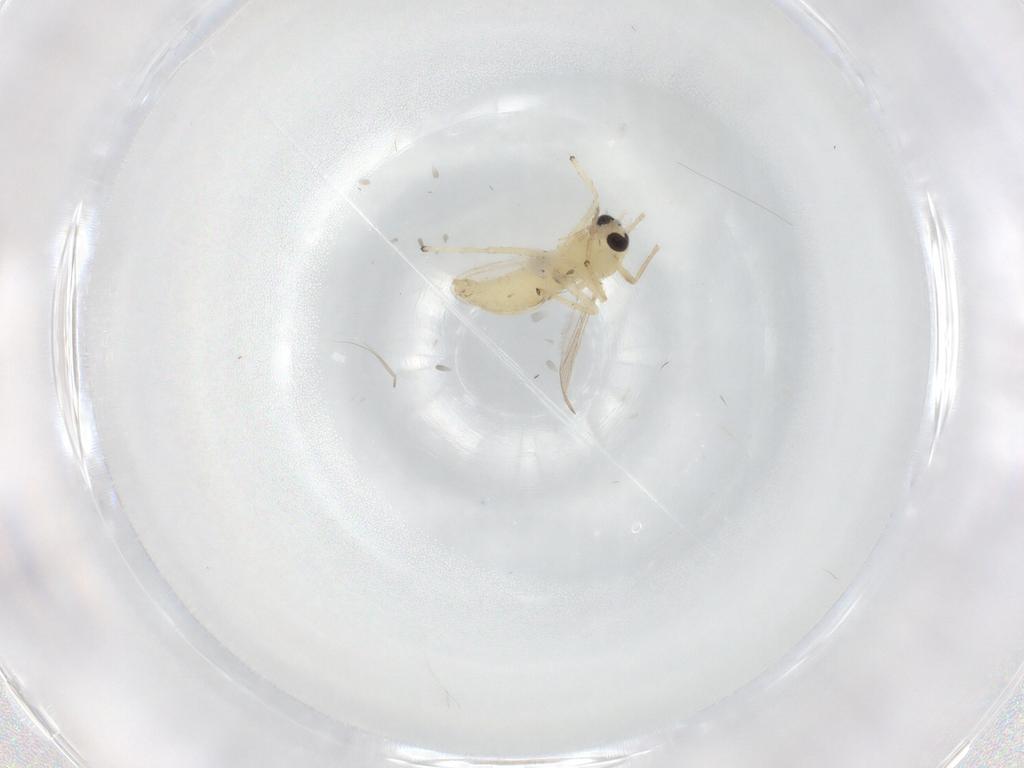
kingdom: Animalia
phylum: Arthropoda
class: Insecta
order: Diptera
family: Chironomidae
